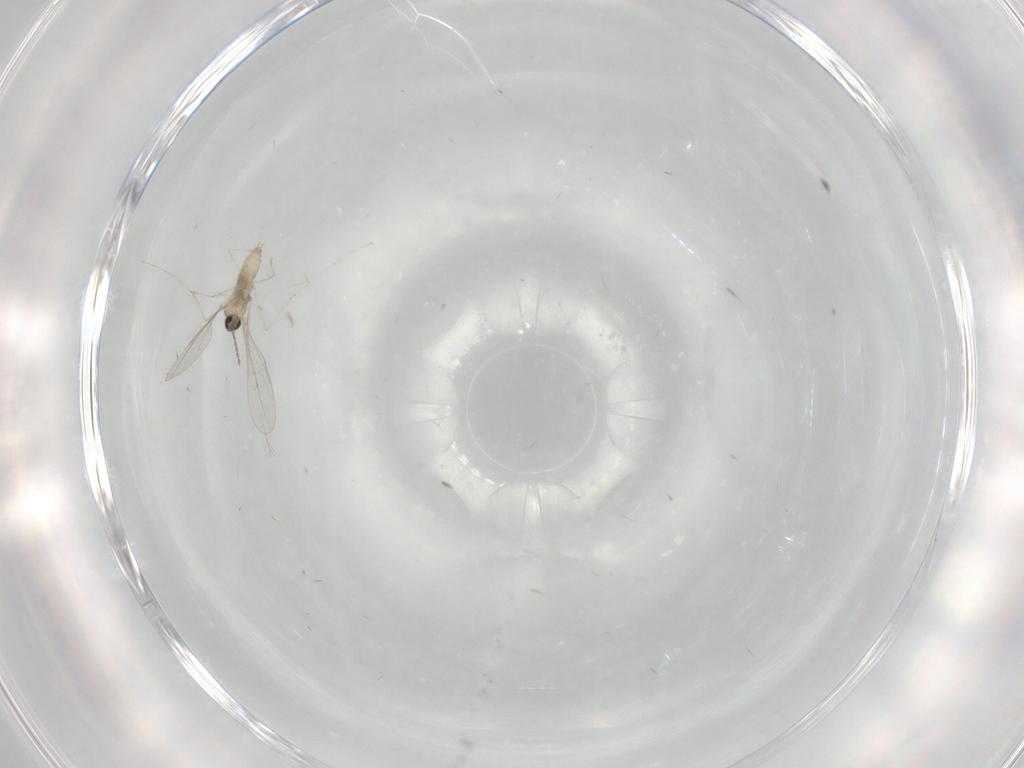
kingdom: Animalia
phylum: Arthropoda
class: Insecta
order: Diptera
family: Cecidomyiidae
